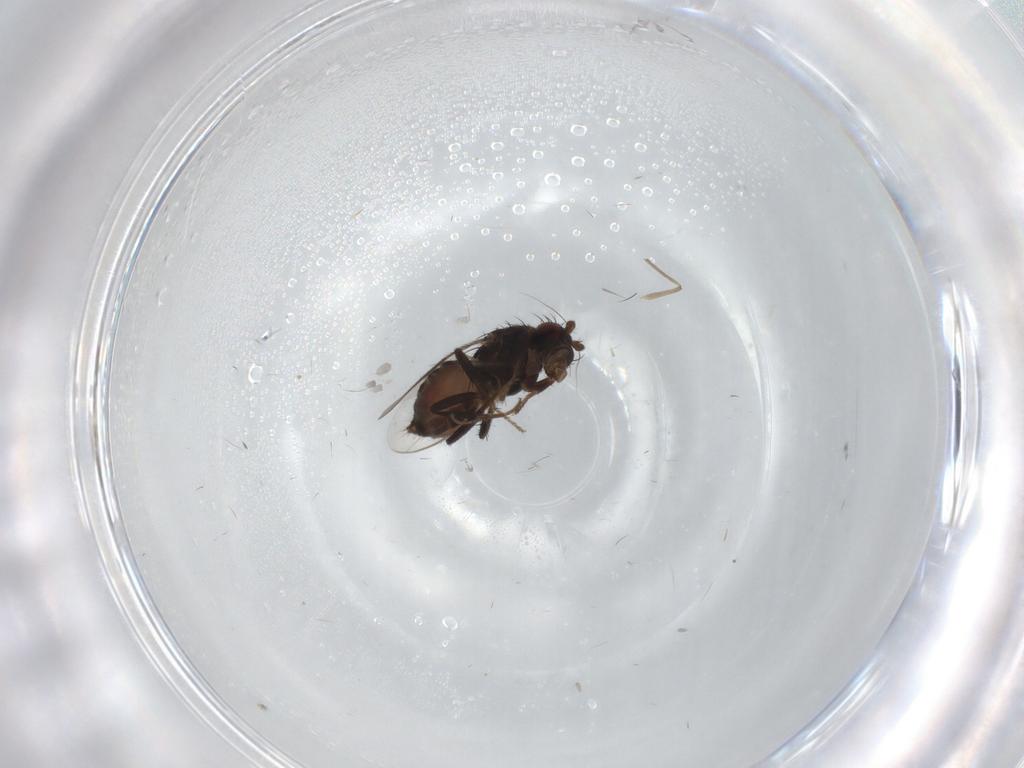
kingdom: Animalia
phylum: Arthropoda
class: Insecta
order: Diptera
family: Sphaeroceridae
